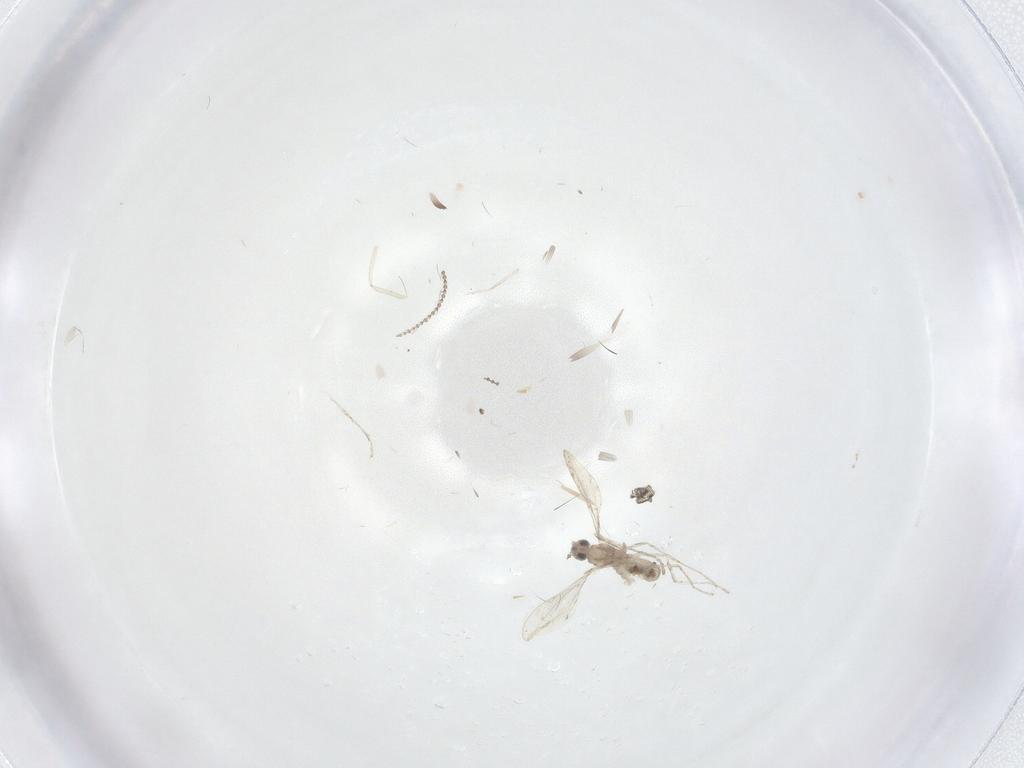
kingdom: Animalia
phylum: Arthropoda
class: Insecta
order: Diptera
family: Cecidomyiidae
